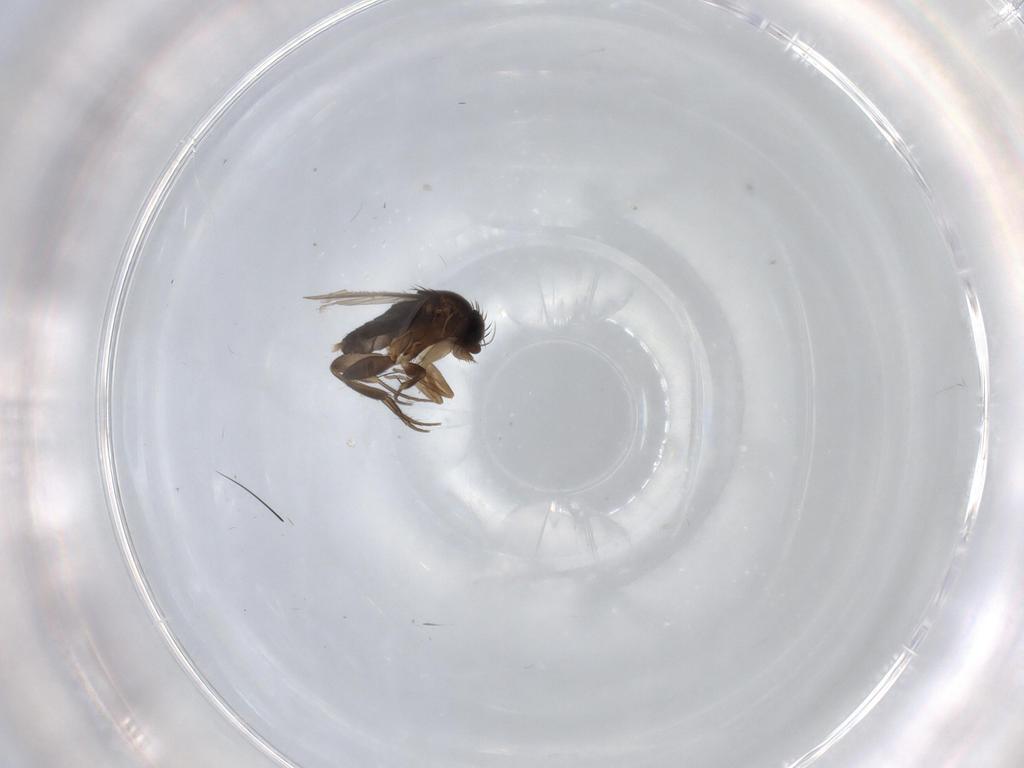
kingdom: Animalia
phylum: Arthropoda
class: Insecta
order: Diptera
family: Phoridae
